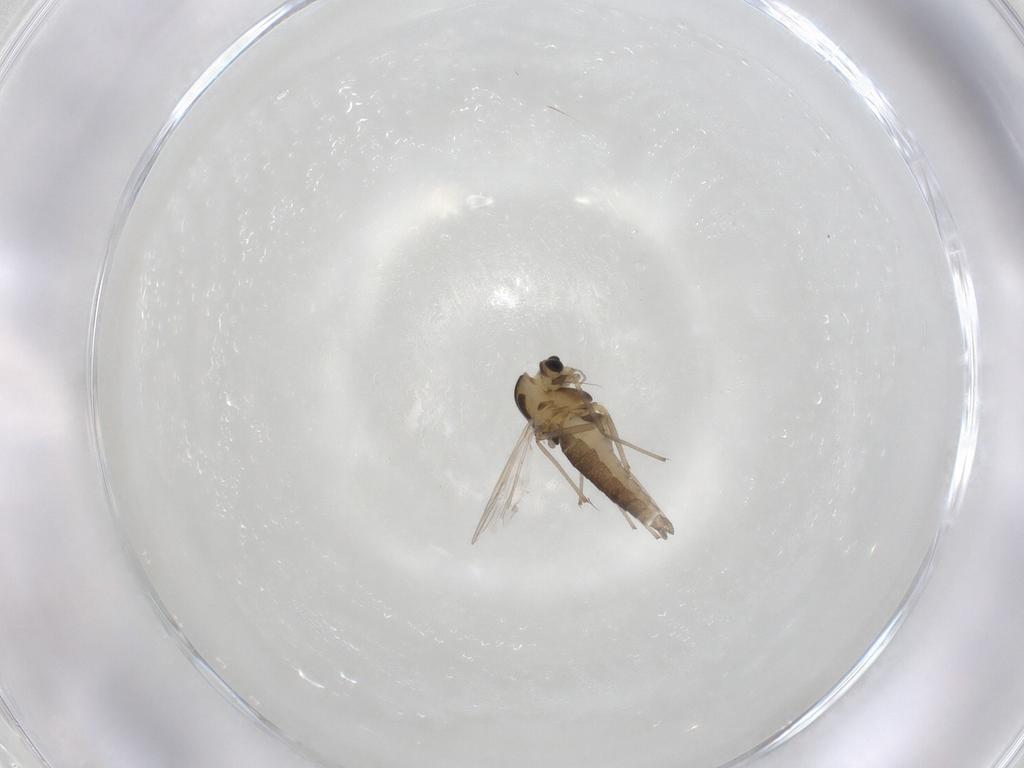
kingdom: Animalia
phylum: Arthropoda
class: Insecta
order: Diptera
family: Chironomidae
